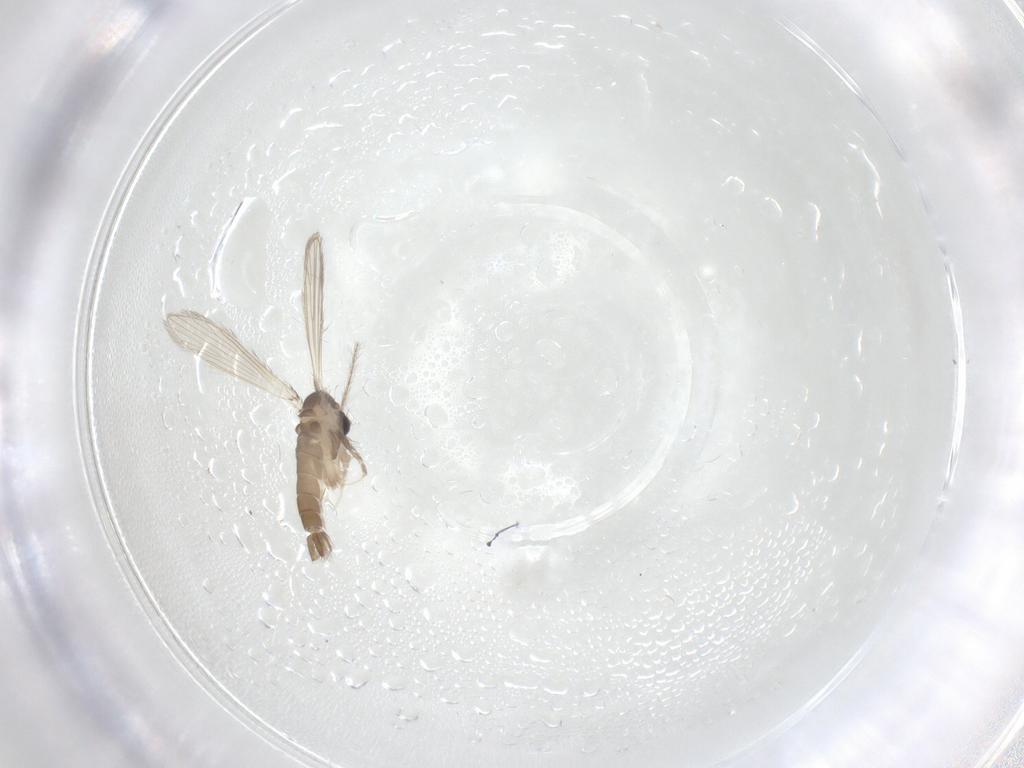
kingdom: Animalia
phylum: Arthropoda
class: Insecta
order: Diptera
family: Psychodidae
